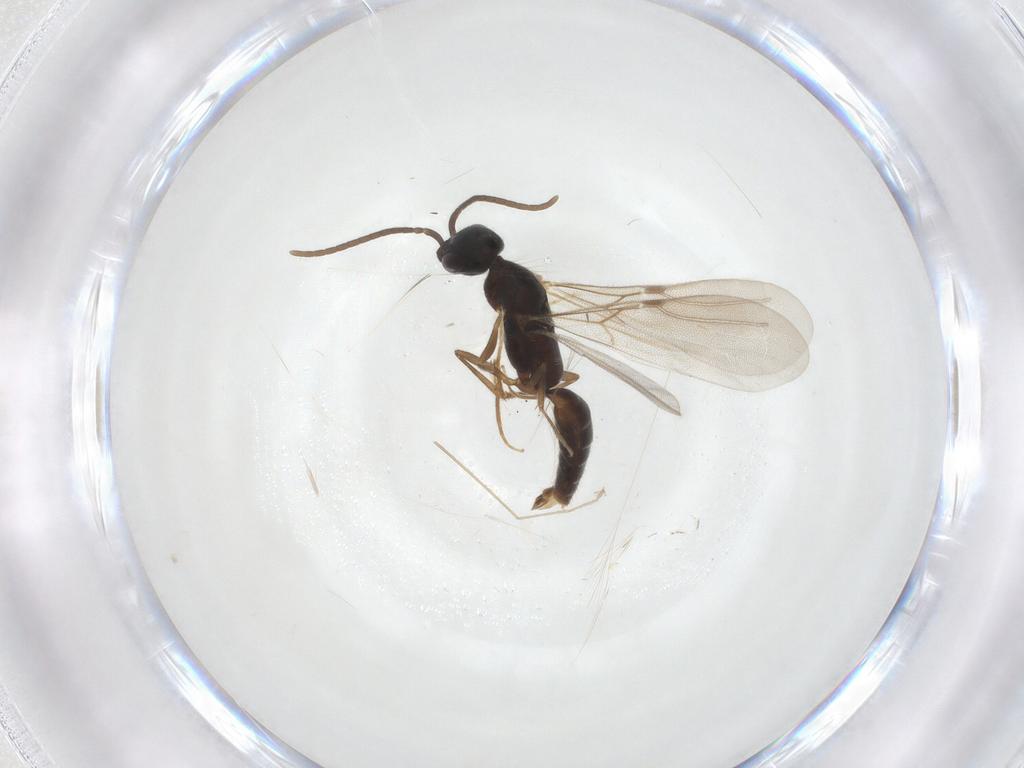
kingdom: Animalia
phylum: Arthropoda
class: Insecta
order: Hymenoptera
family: Bethylidae
